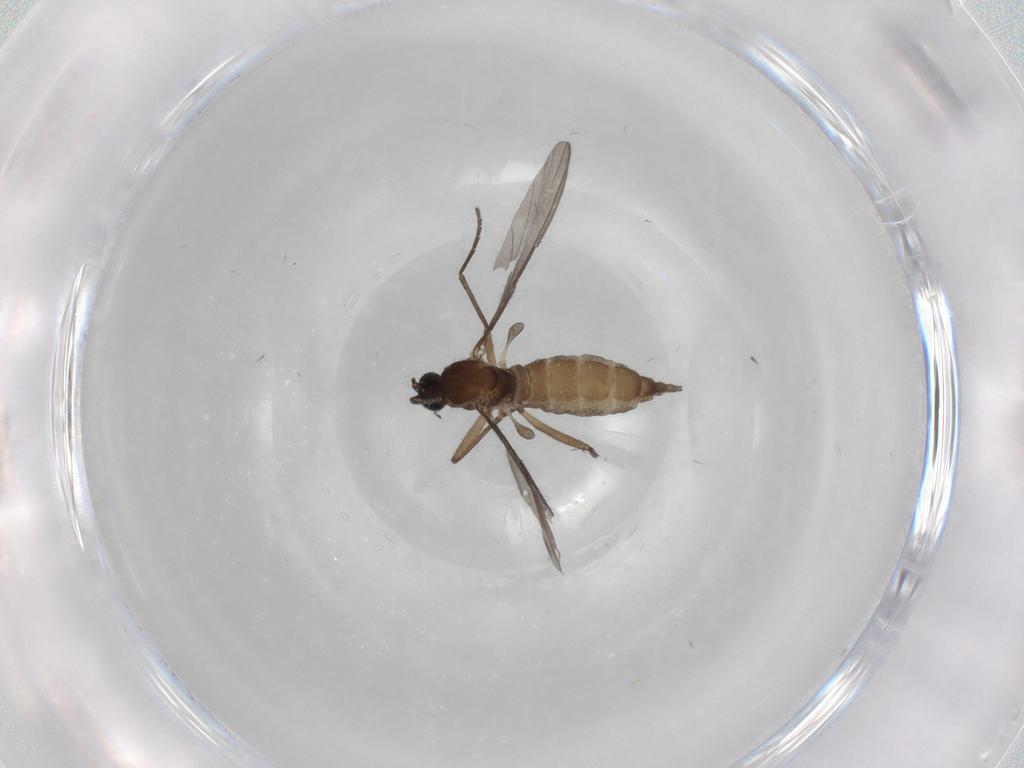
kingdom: Animalia
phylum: Arthropoda
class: Insecta
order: Diptera
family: Sciaridae
